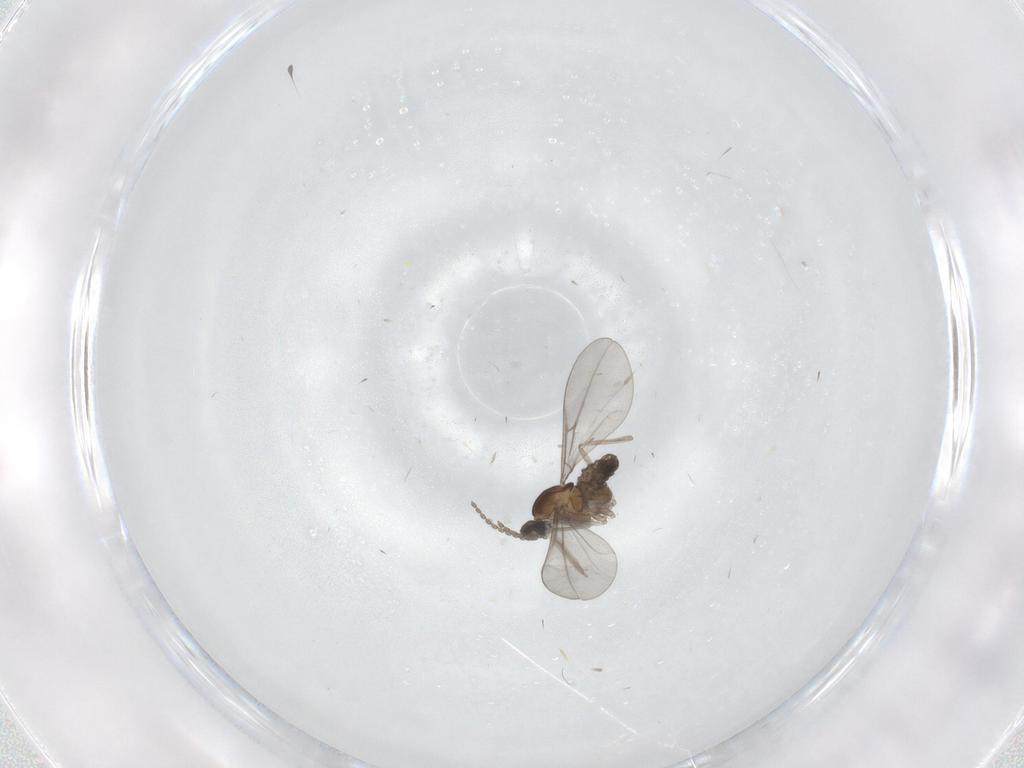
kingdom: Animalia
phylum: Arthropoda
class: Insecta
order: Diptera
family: Cecidomyiidae
